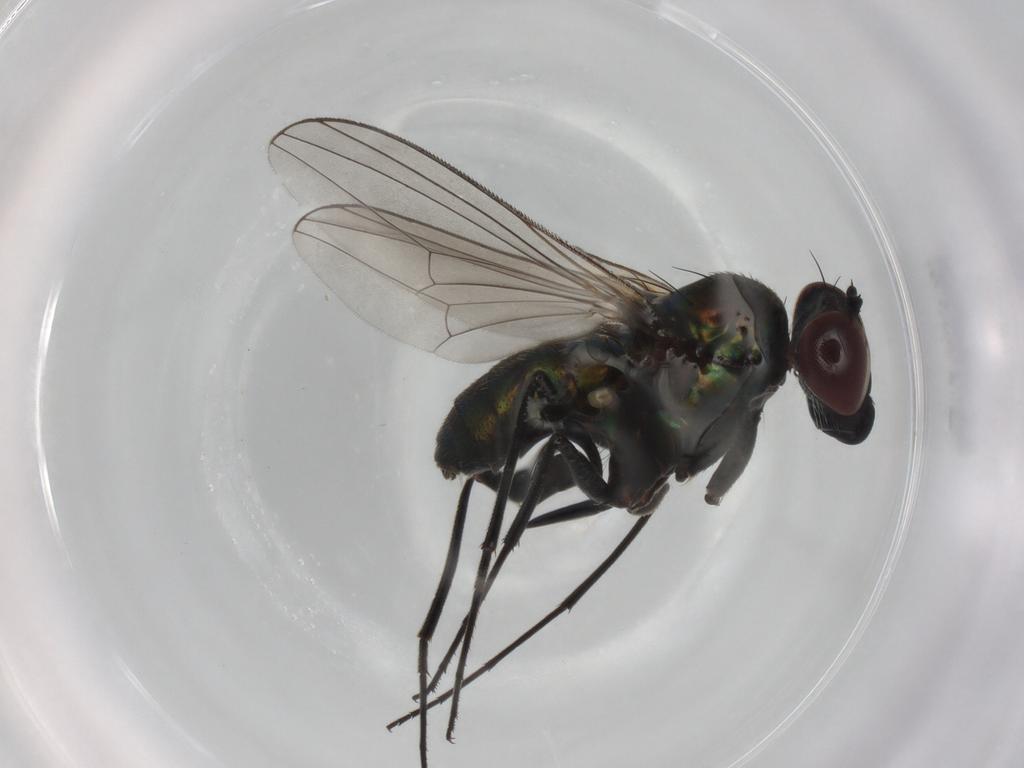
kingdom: Animalia
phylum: Arthropoda
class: Insecta
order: Diptera
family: Dolichopodidae
